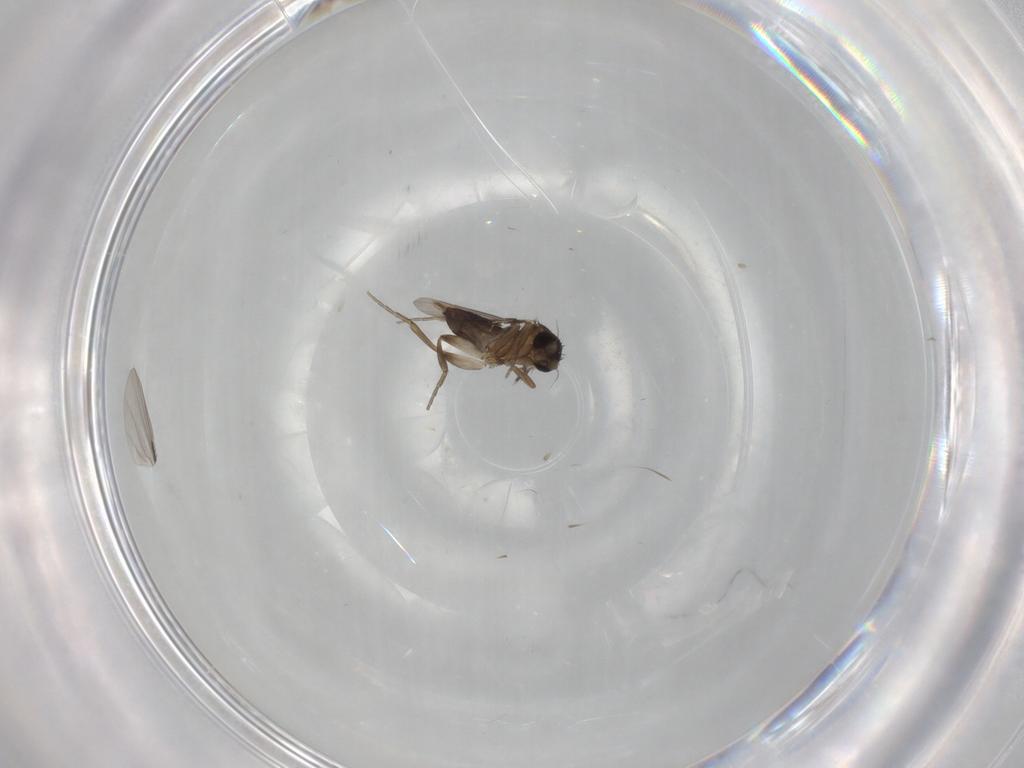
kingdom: Animalia
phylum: Arthropoda
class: Insecta
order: Diptera
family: Phoridae
